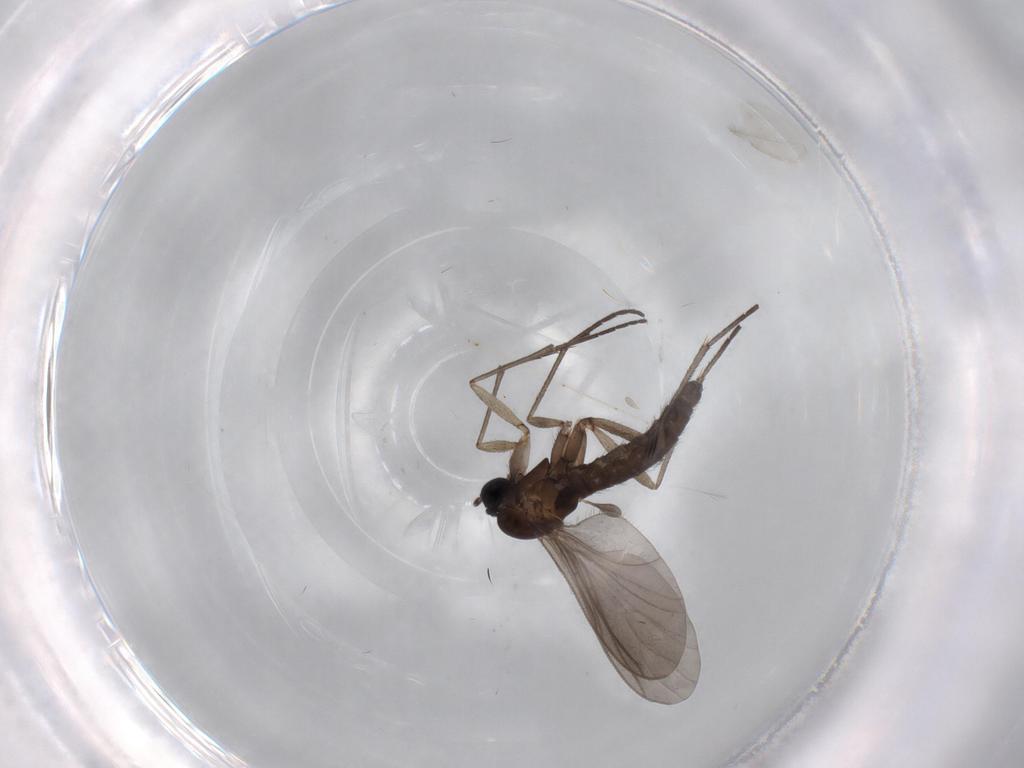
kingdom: Animalia
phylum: Arthropoda
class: Insecta
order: Diptera
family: Sciaridae
